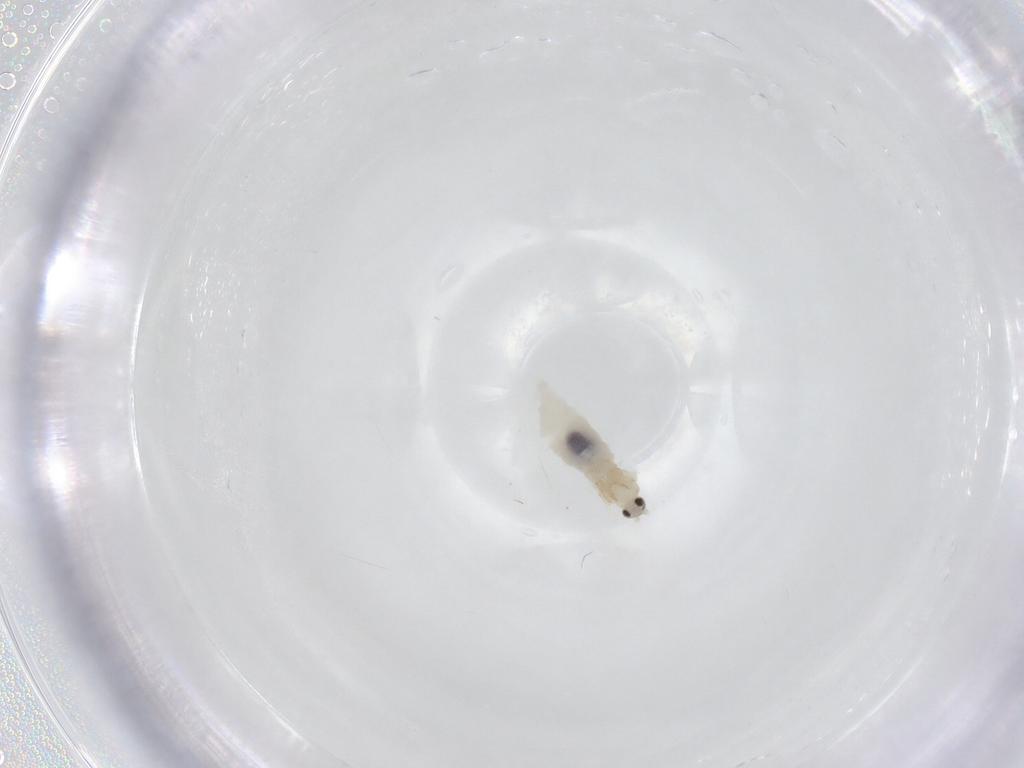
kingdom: Animalia
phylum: Arthropoda
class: Insecta
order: Diptera
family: Cecidomyiidae
